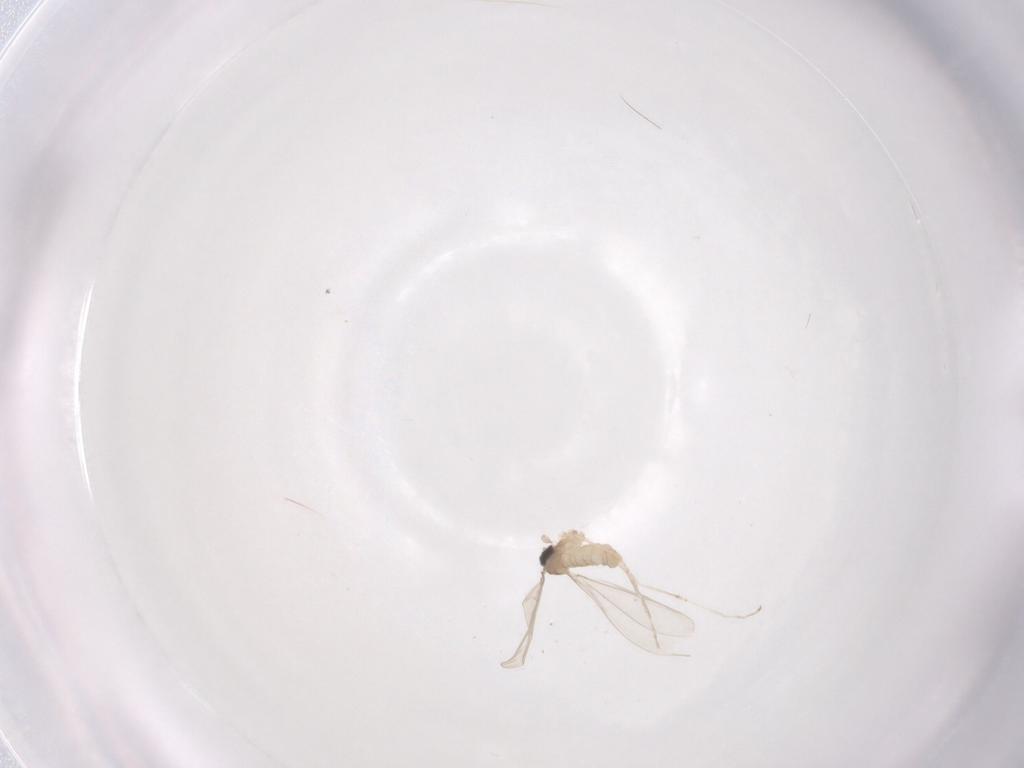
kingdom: Animalia
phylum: Arthropoda
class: Insecta
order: Diptera
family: Cecidomyiidae
